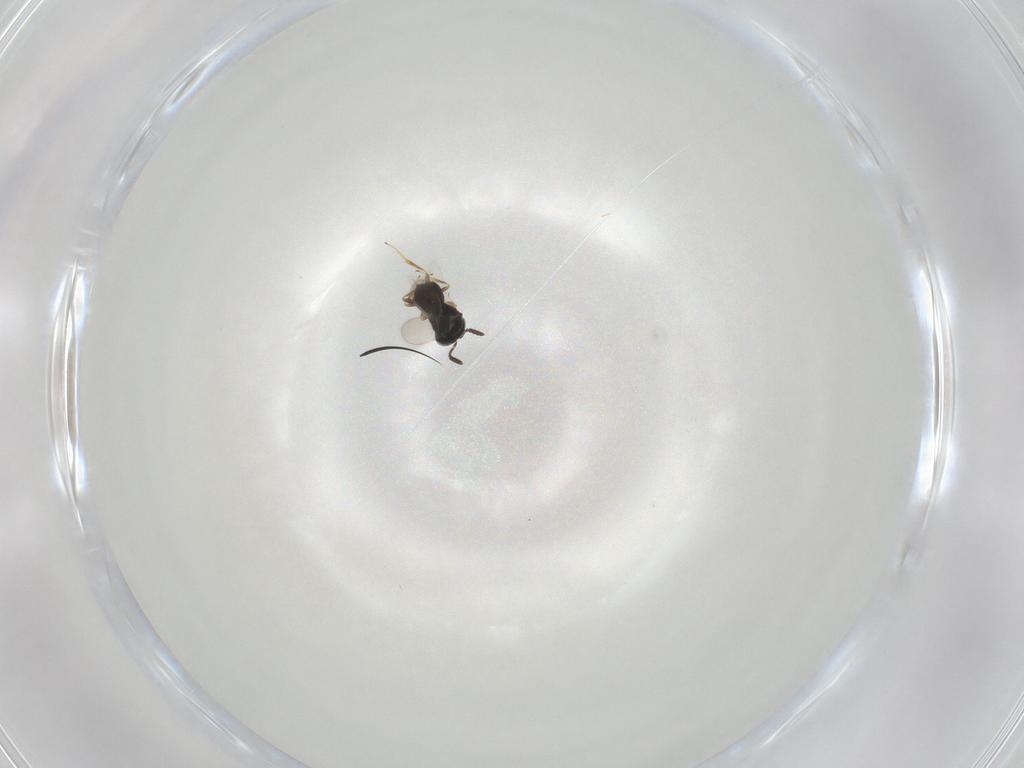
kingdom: Animalia
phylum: Arthropoda
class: Insecta
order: Hymenoptera
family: Scelionidae
